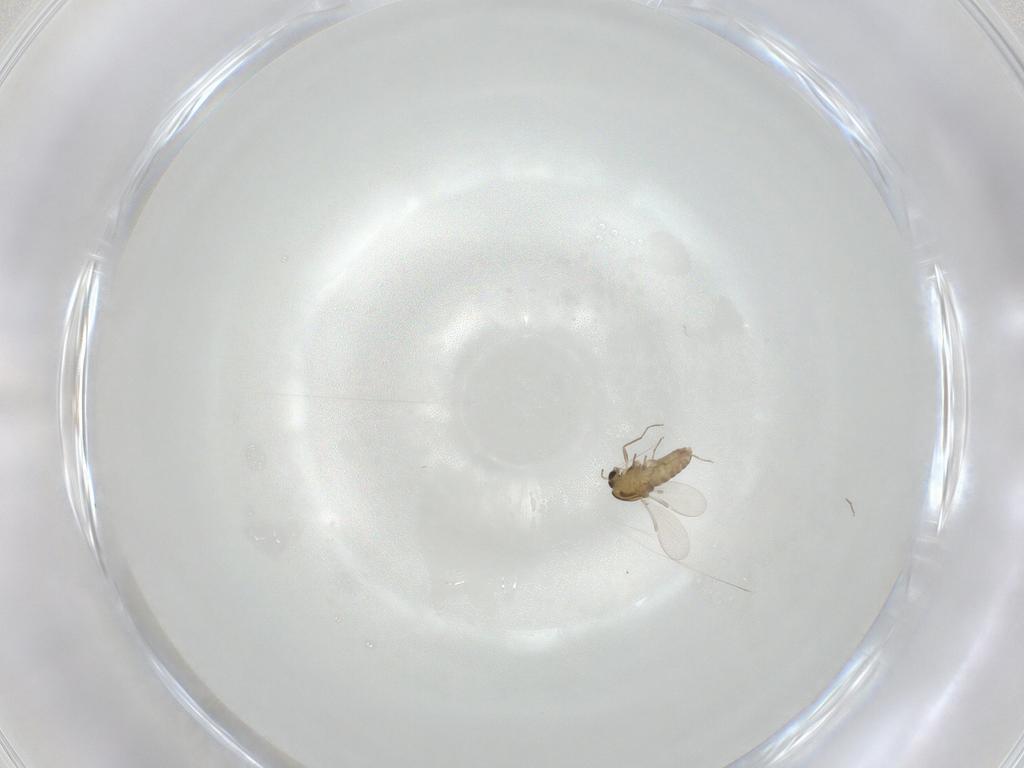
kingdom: Animalia
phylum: Arthropoda
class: Insecta
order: Diptera
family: Chironomidae
